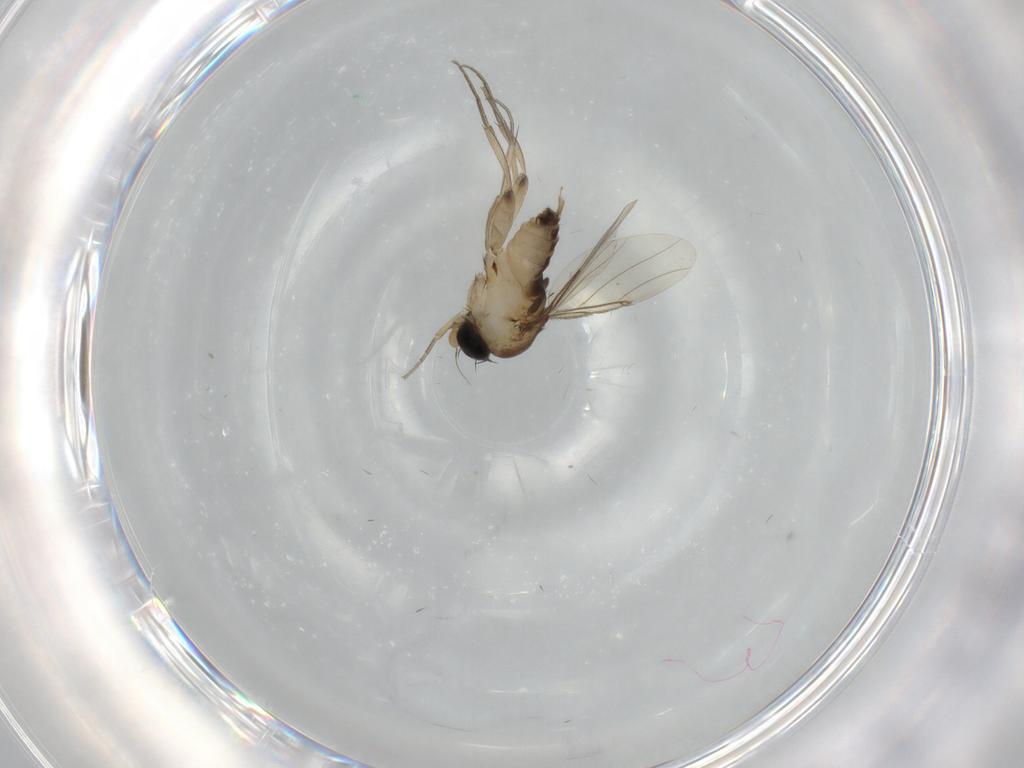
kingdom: Animalia
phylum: Arthropoda
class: Insecta
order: Diptera
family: Phoridae
